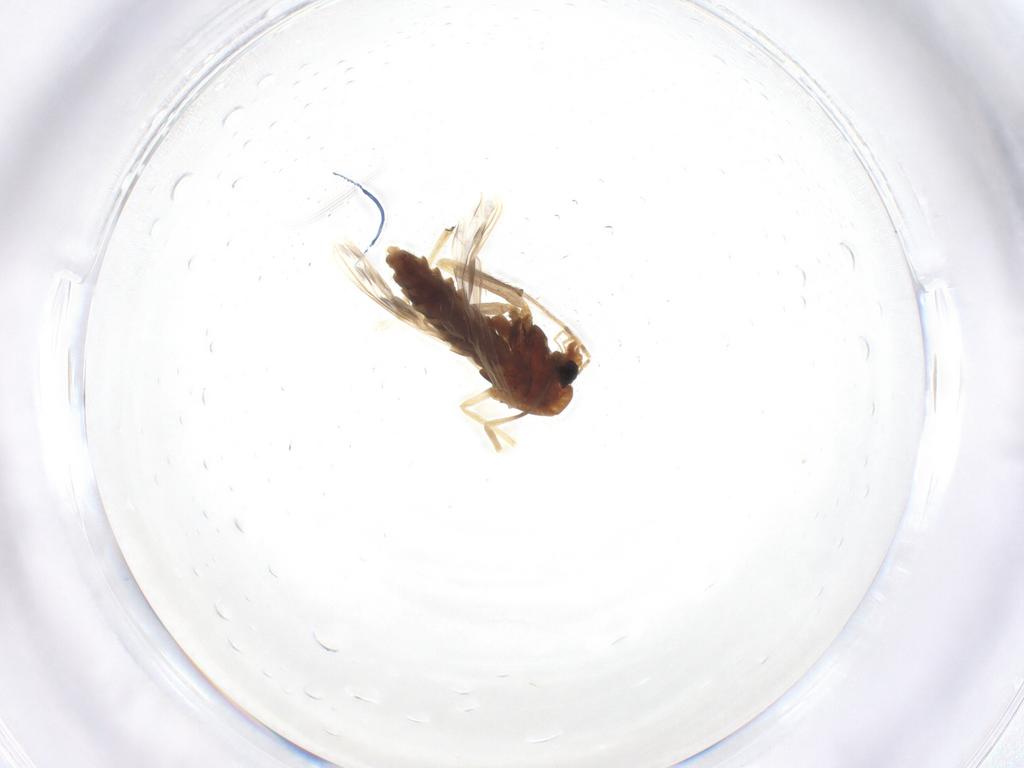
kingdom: Animalia
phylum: Arthropoda
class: Insecta
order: Diptera
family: Chironomidae
